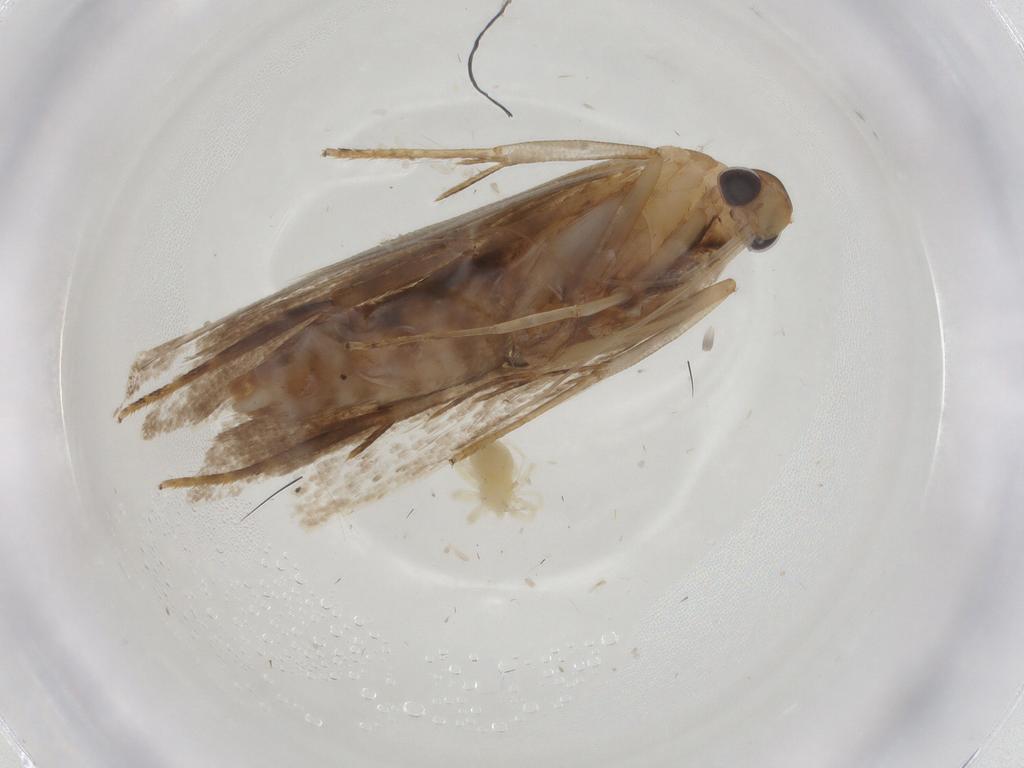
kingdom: Animalia
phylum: Arthropoda
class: Arachnida
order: Trombidiformes
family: Anystidae
